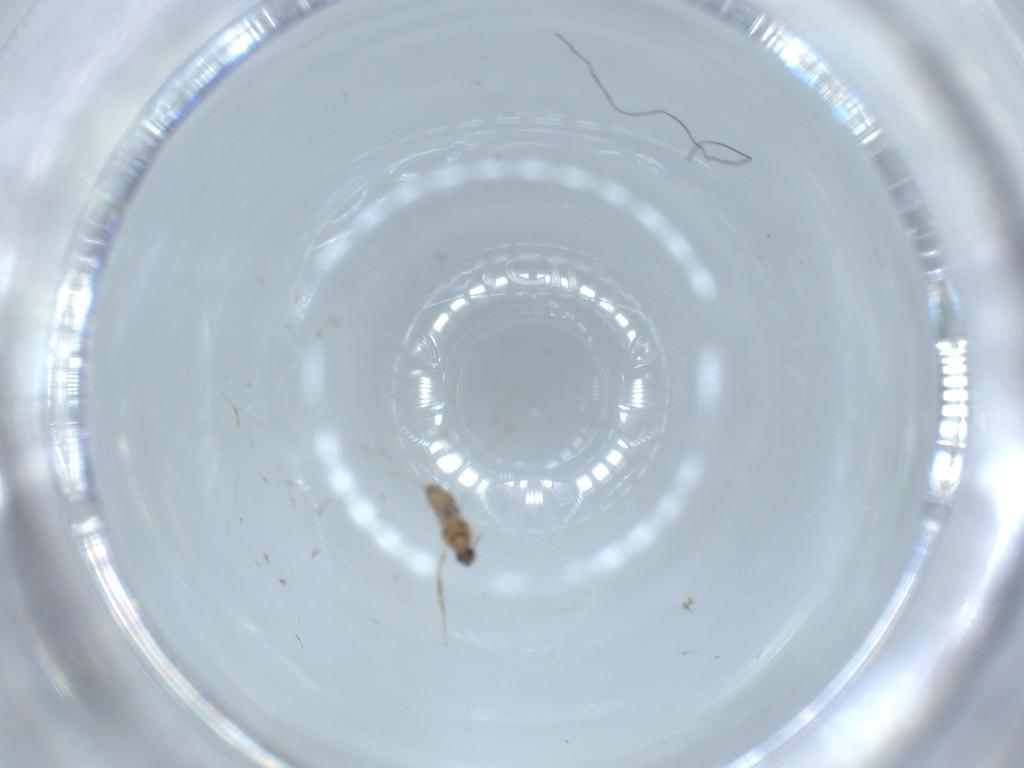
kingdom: Animalia
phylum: Arthropoda
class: Insecta
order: Diptera
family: Cecidomyiidae
